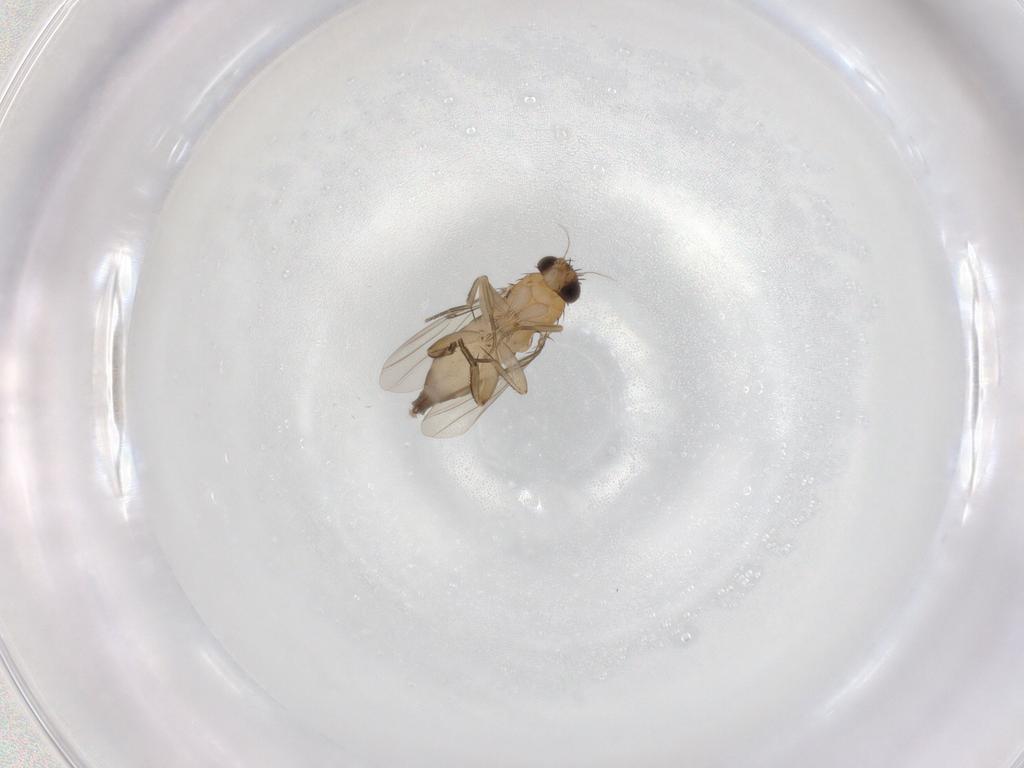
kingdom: Animalia
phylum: Arthropoda
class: Insecta
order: Diptera
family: Phoridae
